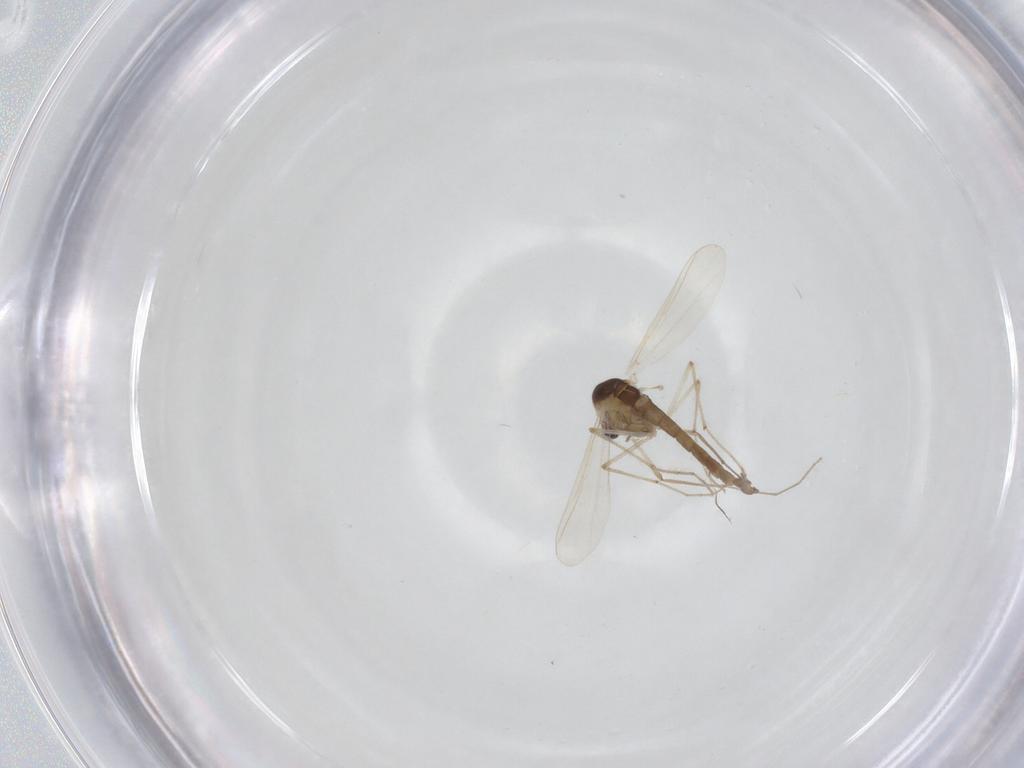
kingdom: Animalia
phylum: Arthropoda
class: Insecta
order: Diptera
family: Chironomidae
